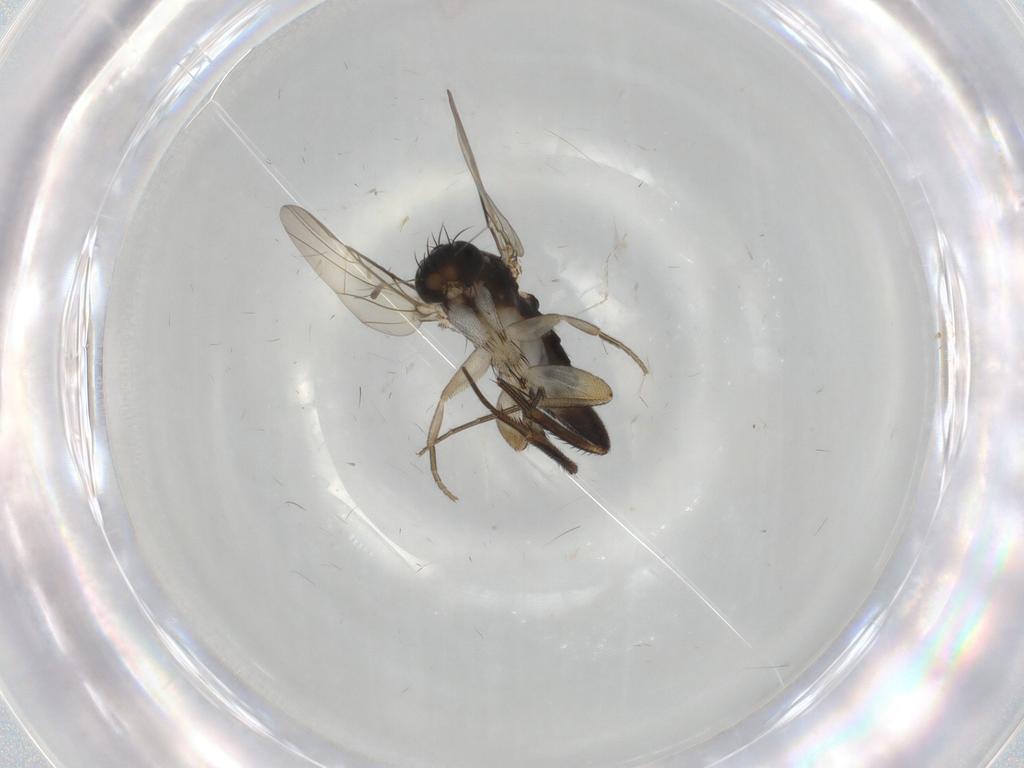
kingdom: Animalia
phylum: Arthropoda
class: Insecta
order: Diptera
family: Phoridae
